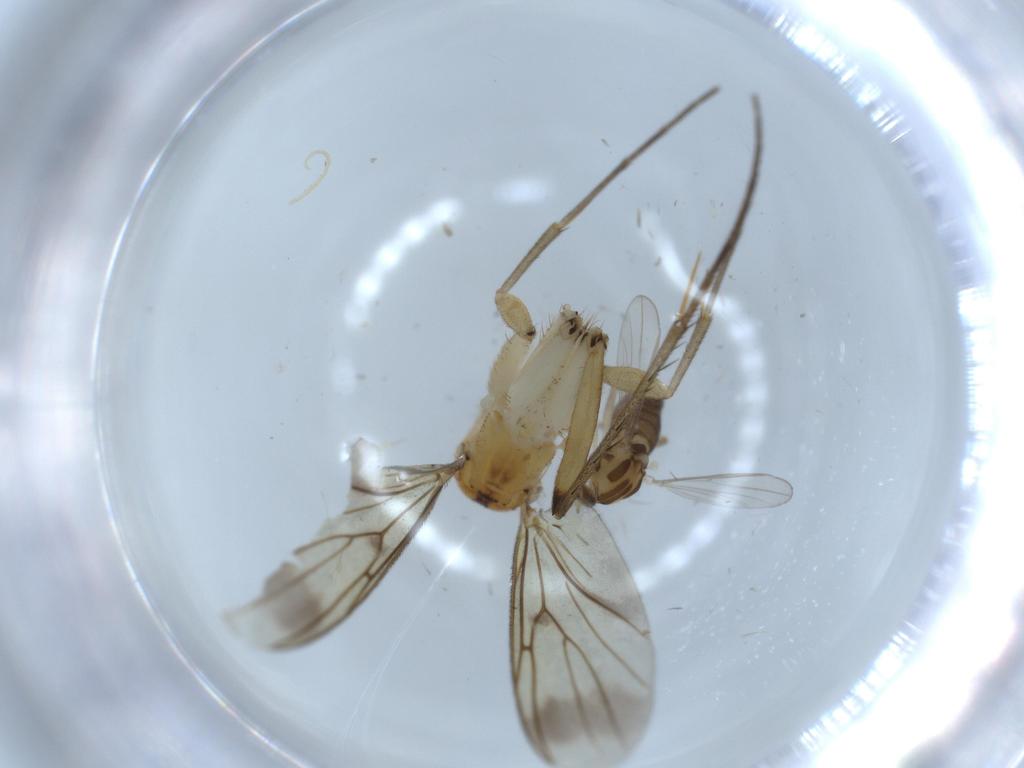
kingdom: Animalia
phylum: Arthropoda
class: Insecta
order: Diptera
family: Chironomidae
